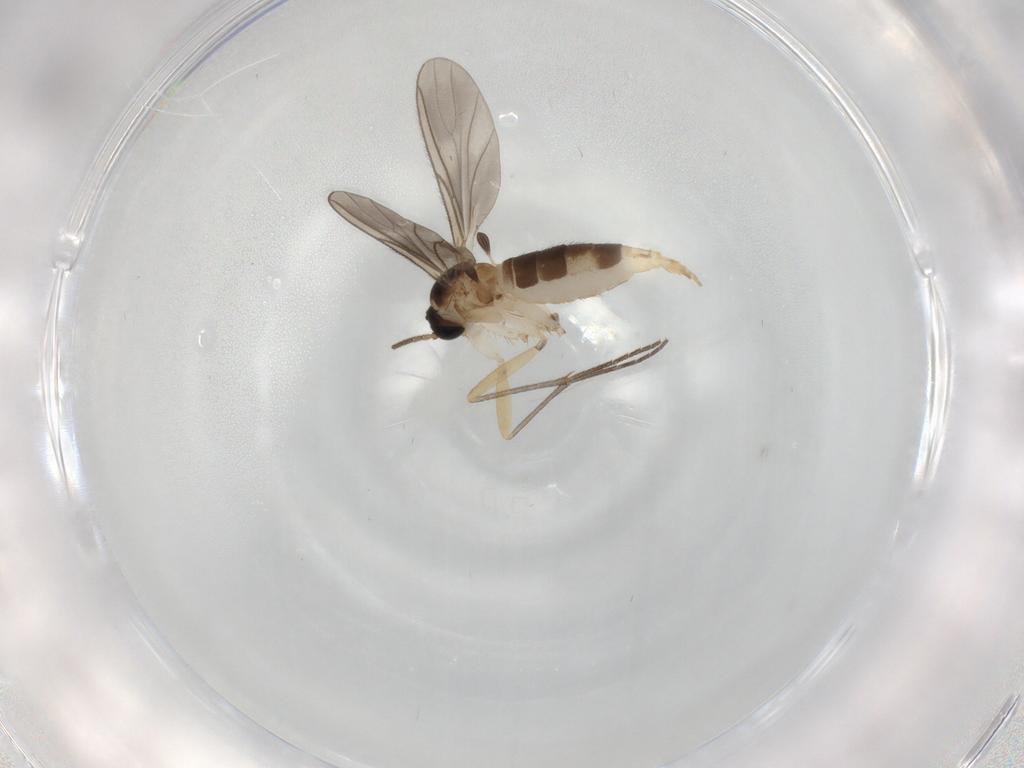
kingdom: Animalia
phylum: Arthropoda
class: Insecta
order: Diptera
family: Sciaridae
